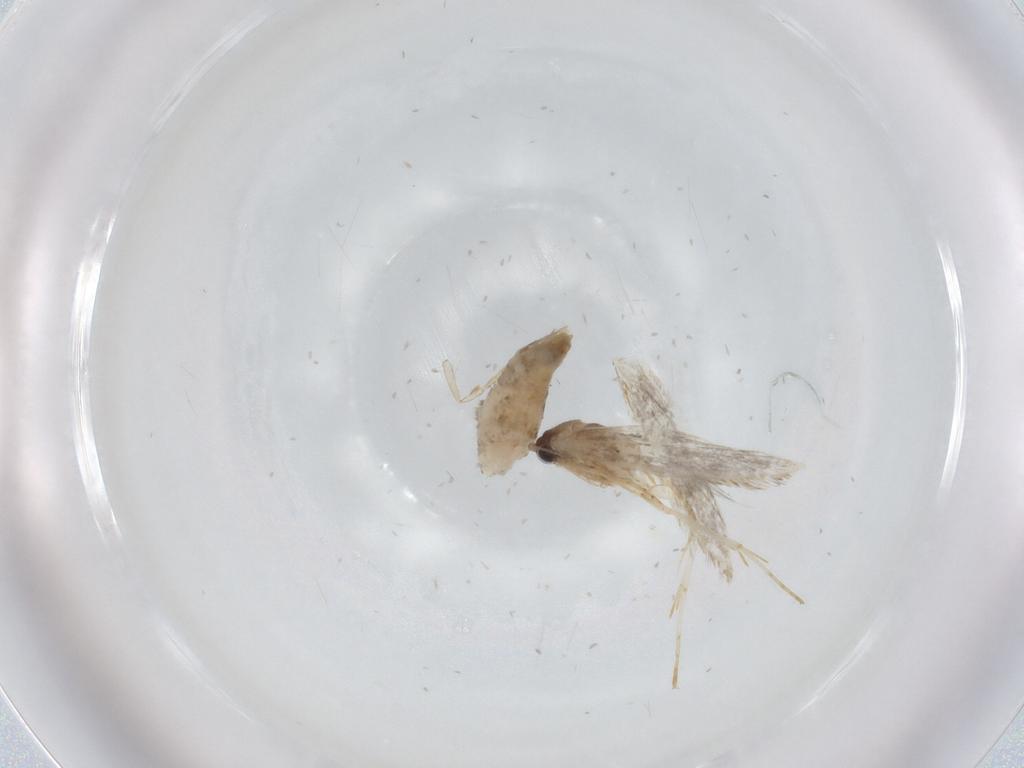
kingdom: Animalia
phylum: Arthropoda
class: Insecta
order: Lepidoptera
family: Tineidae
